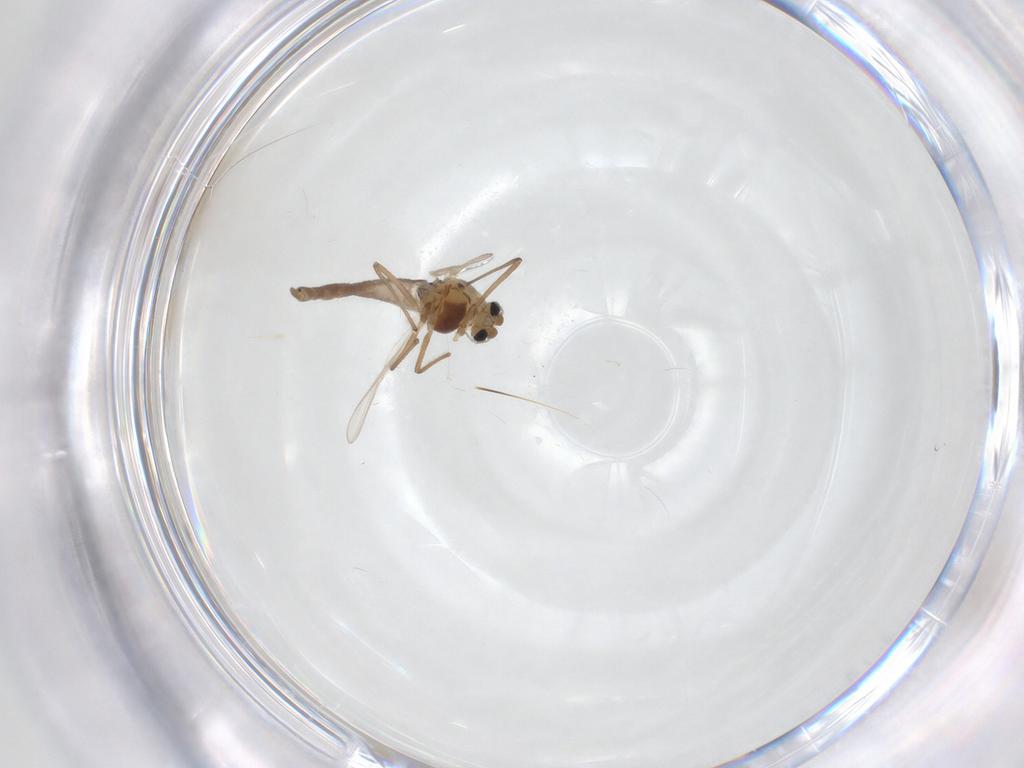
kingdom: Animalia
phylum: Arthropoda
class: Insecta
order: Diptera
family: Chironomidae
